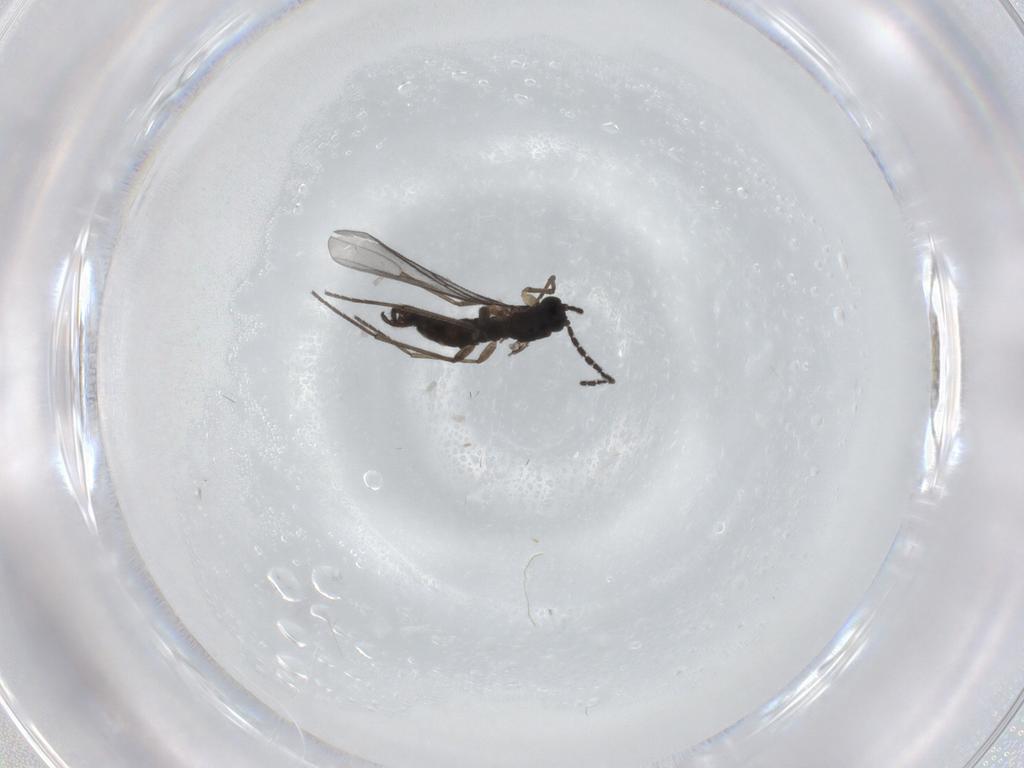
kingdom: Animalia
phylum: Arthropoda
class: Insecta
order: Diptera
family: Sciaridae
